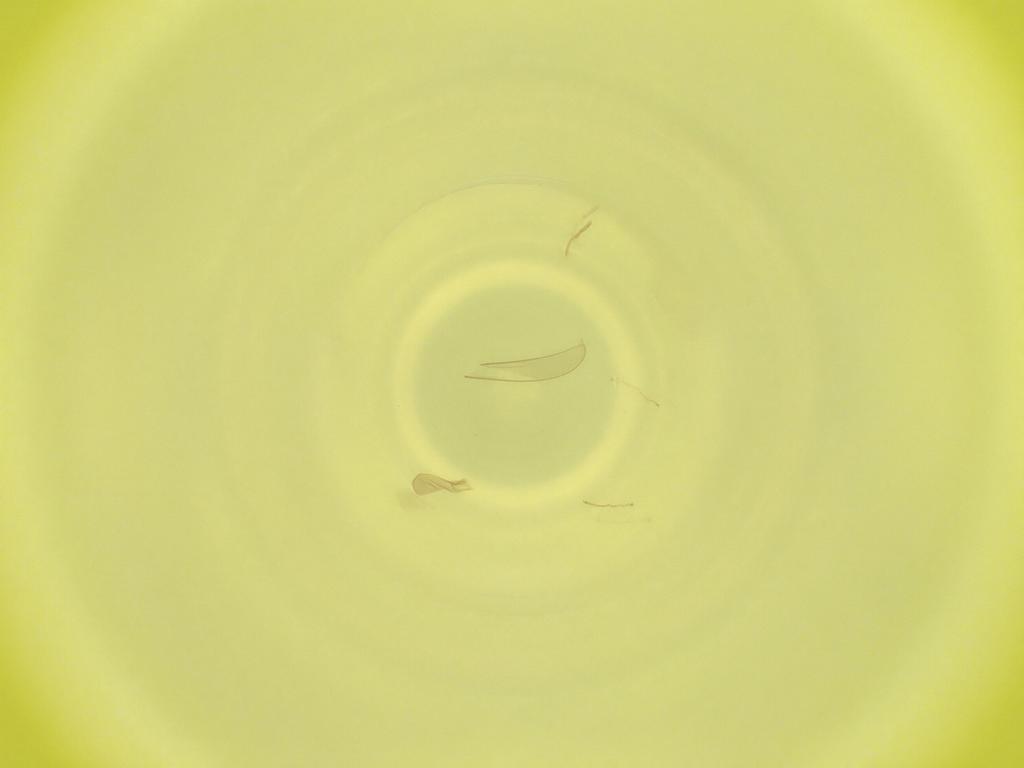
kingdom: Animalia
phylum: Arthropoda
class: Insecta
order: Diptera
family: Cecidomyiidae
